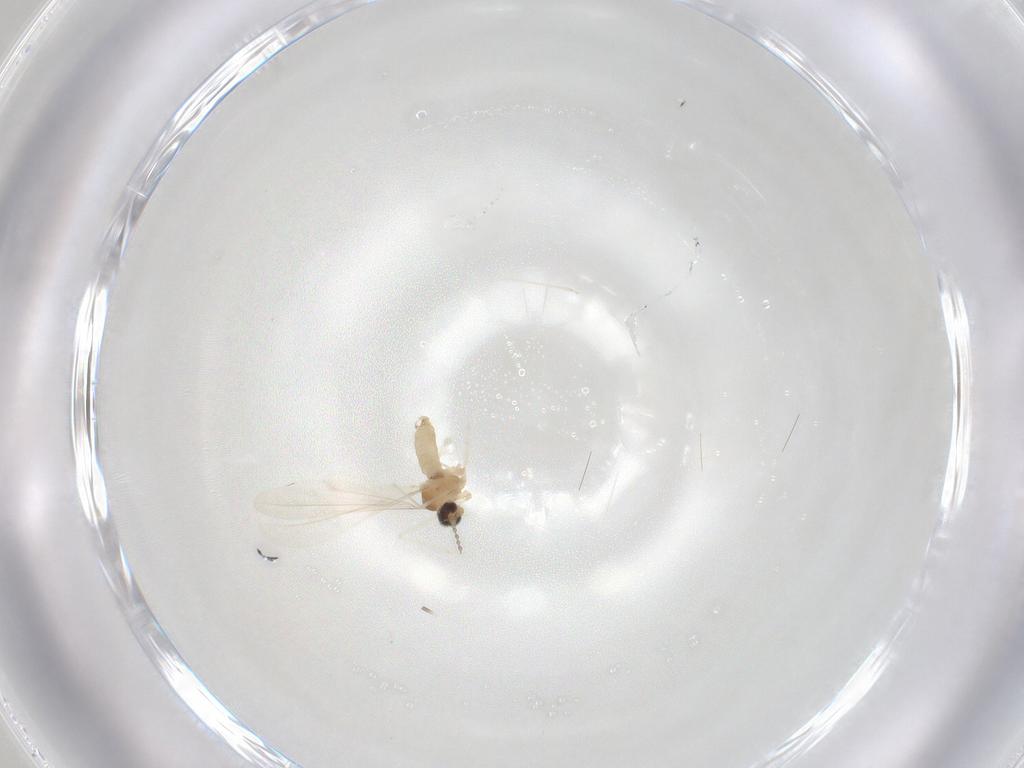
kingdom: Animalia
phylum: Arthropoda
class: Insecta
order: Diptera
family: Cecidomyiidae
